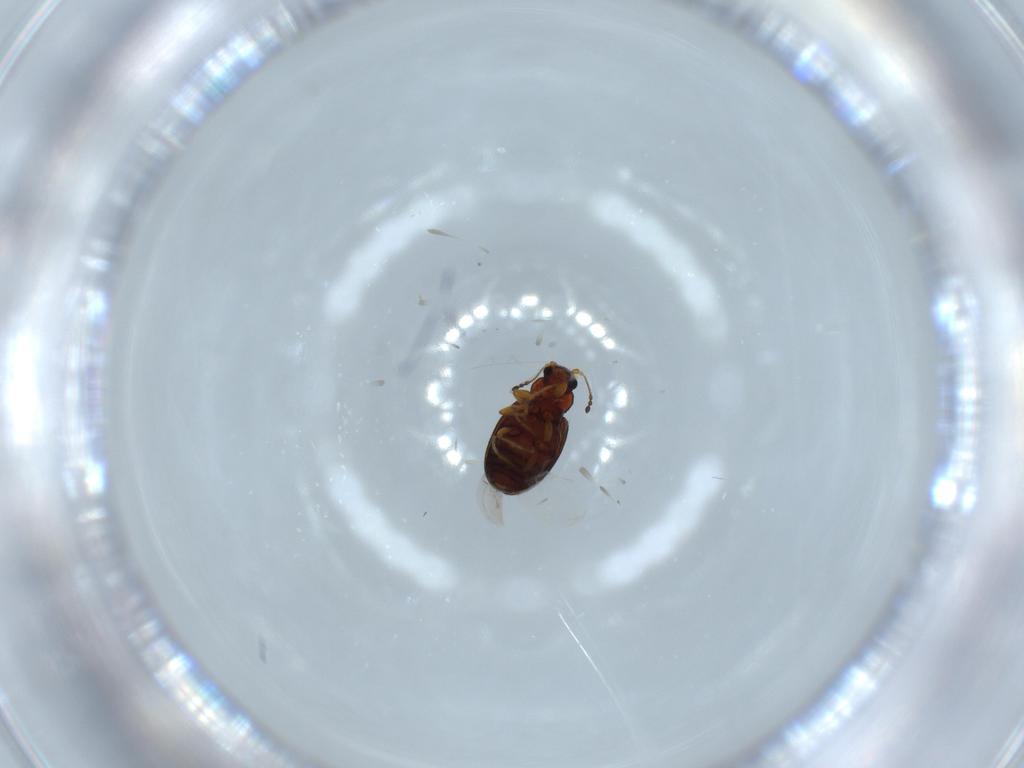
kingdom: Animalia
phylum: Arthropoda
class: Insecta
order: Coleoptera
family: Latridiidae
